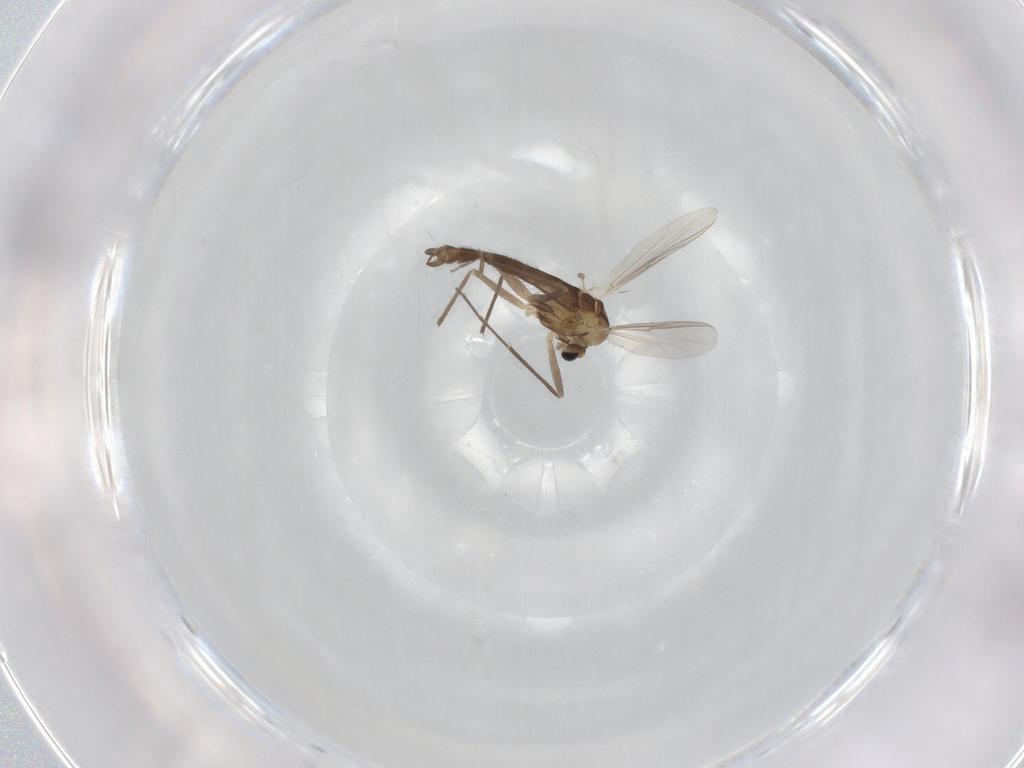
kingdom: Animalia
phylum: Arthropoda
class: Insecta
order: Diptera
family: Chironomidae
